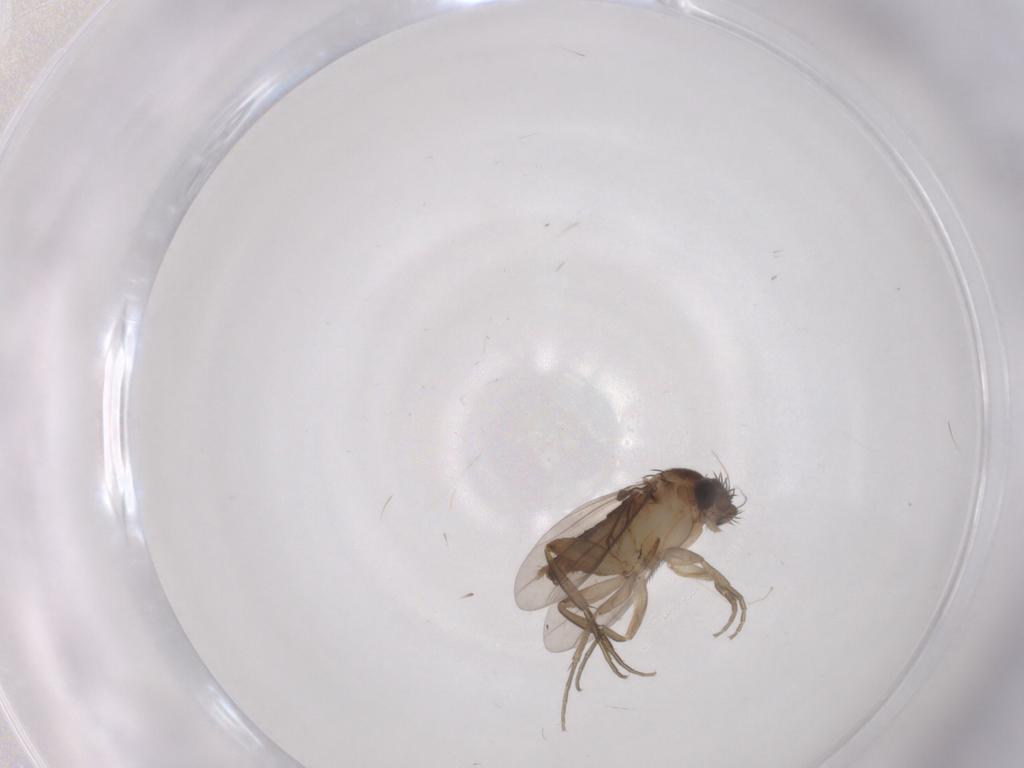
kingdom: Animalia
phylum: Arthropoda
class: Insecta
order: Diptera
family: Phoridae
